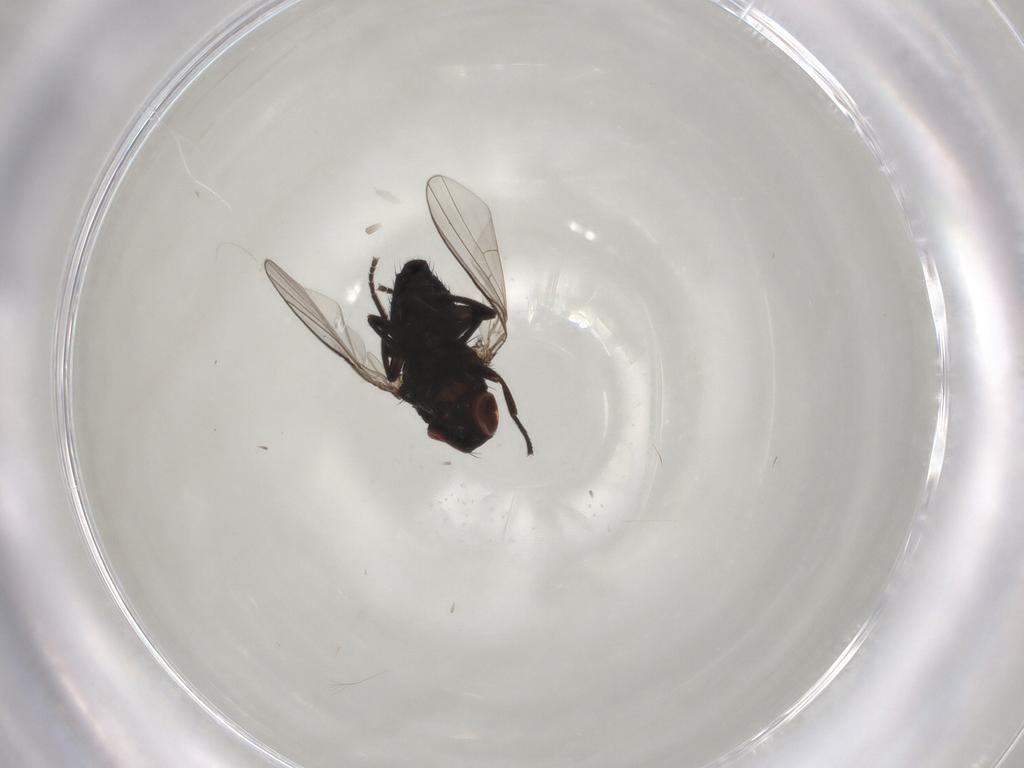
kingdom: Animalia
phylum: Arthropoda
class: Insecta
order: Diptera
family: Agromyzidae
